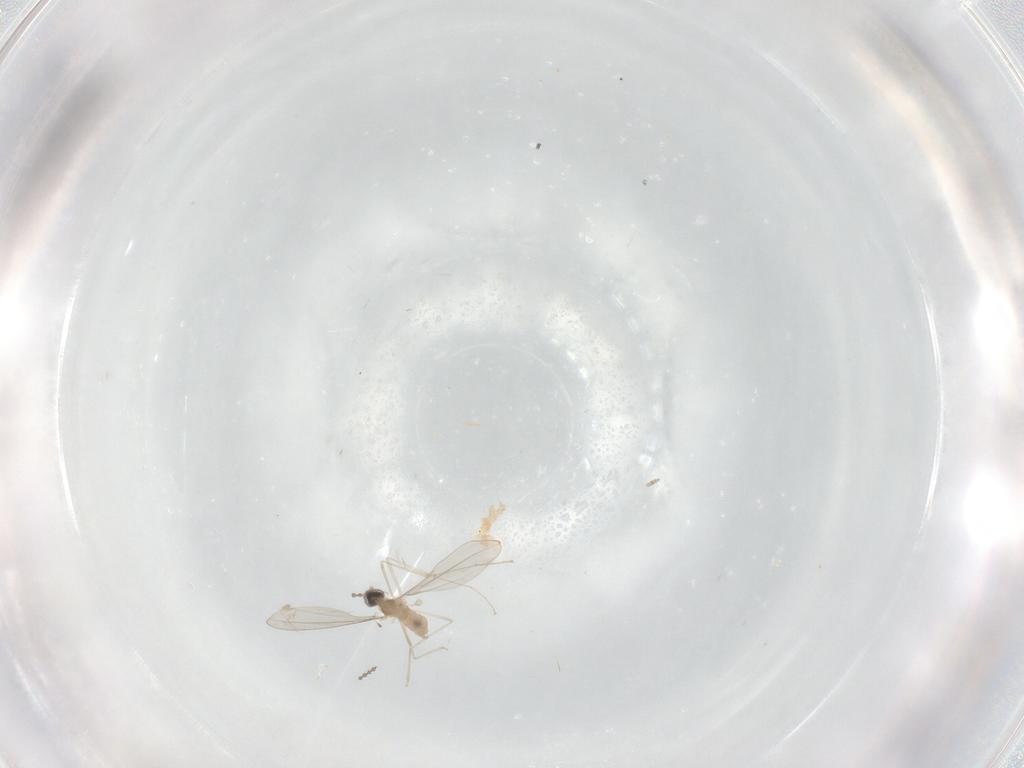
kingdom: Animalia
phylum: Arthropoda
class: Insecta
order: Diptera
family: Cecidomyiidae
